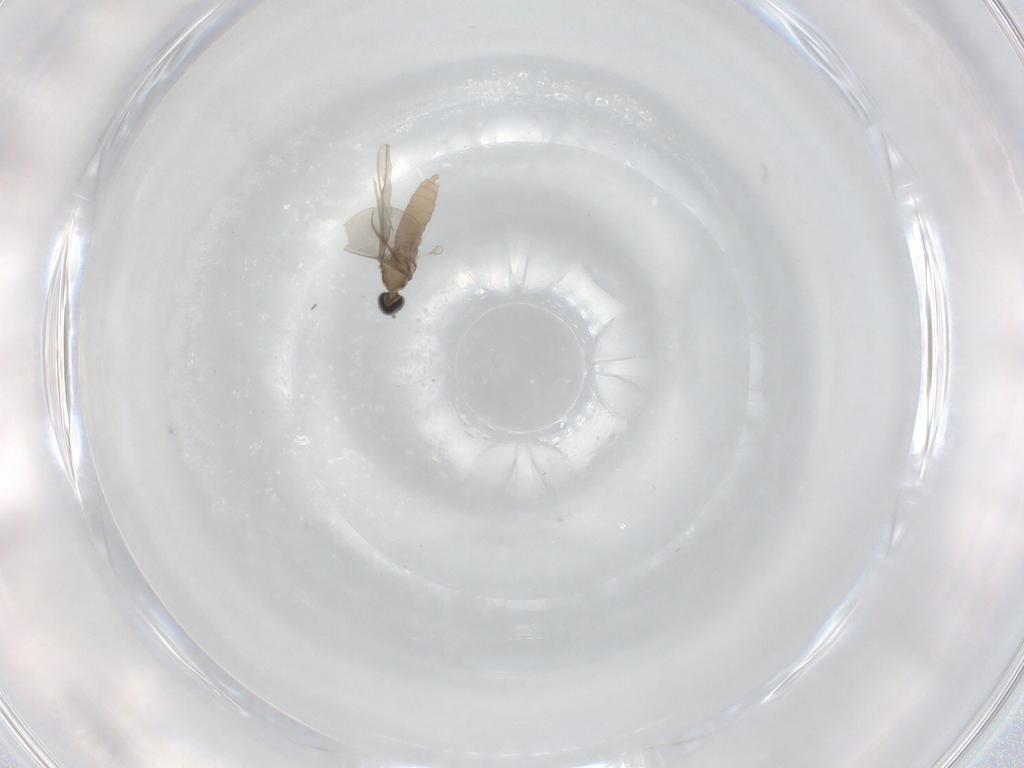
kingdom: Animalia
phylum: Arthropoda
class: Insecta
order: Diptera
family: Cecidomyiidae
